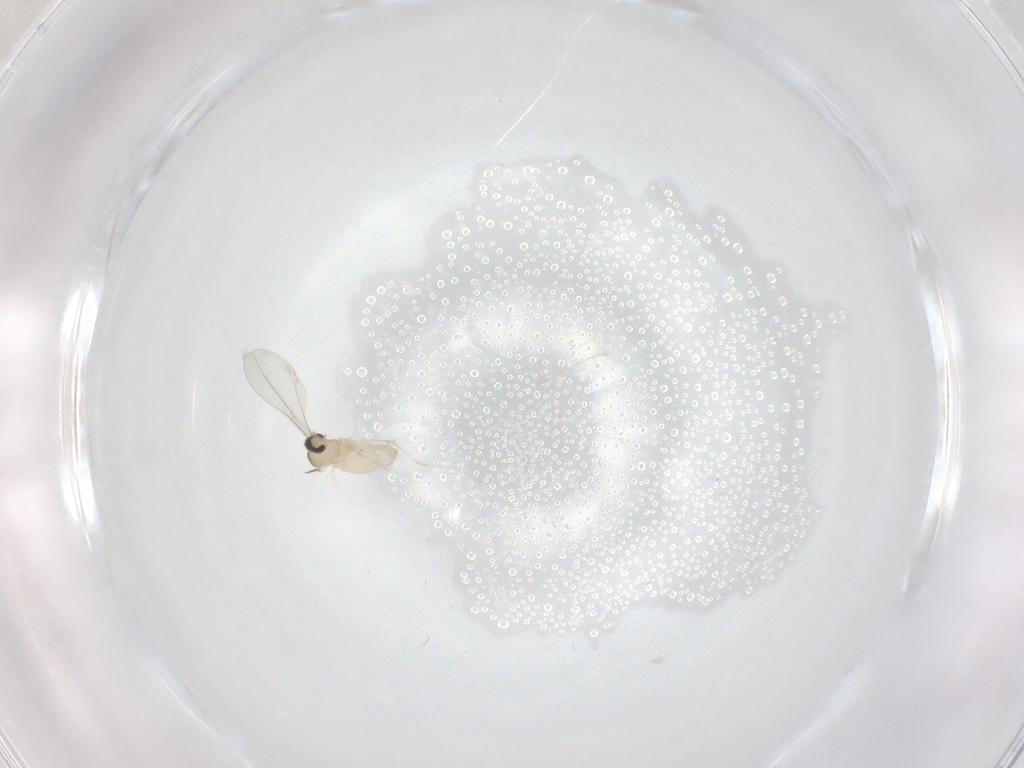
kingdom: Animalia
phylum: Arthropoda
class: Insecta
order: Diptera
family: Cecidomyiidae
